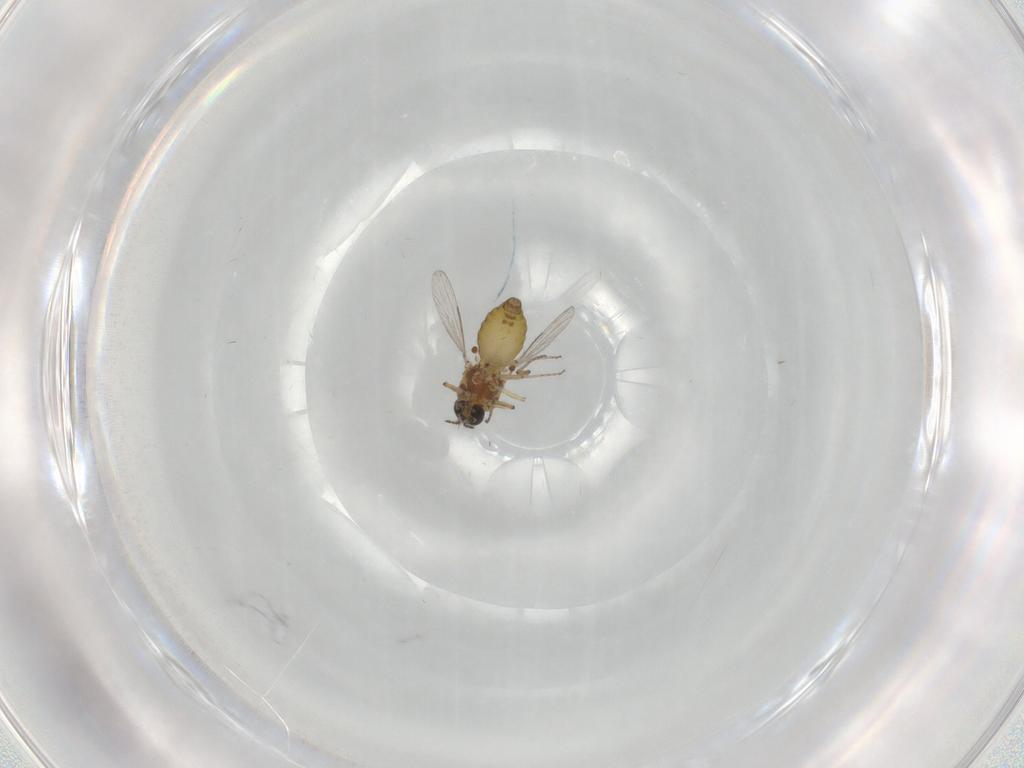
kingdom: Animalia
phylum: Arthropoda
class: Insecta
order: Diptera
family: Ceratopogonidae
